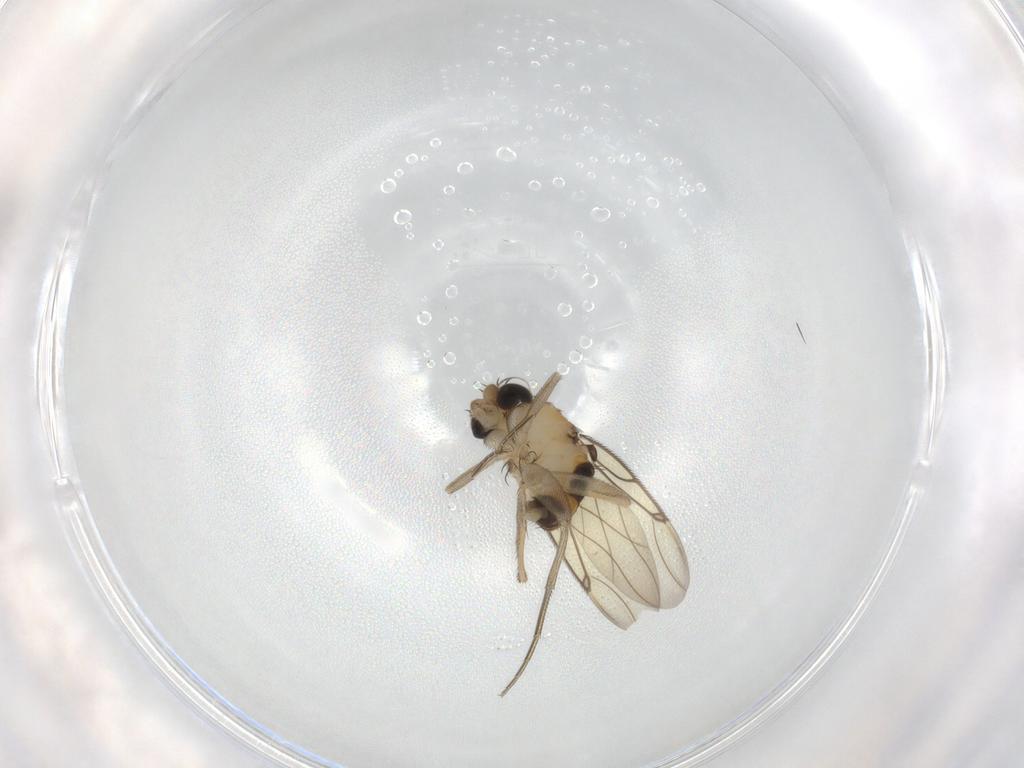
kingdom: Animalia
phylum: Arthropoda
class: Insecta
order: Diptera
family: Phoridae
